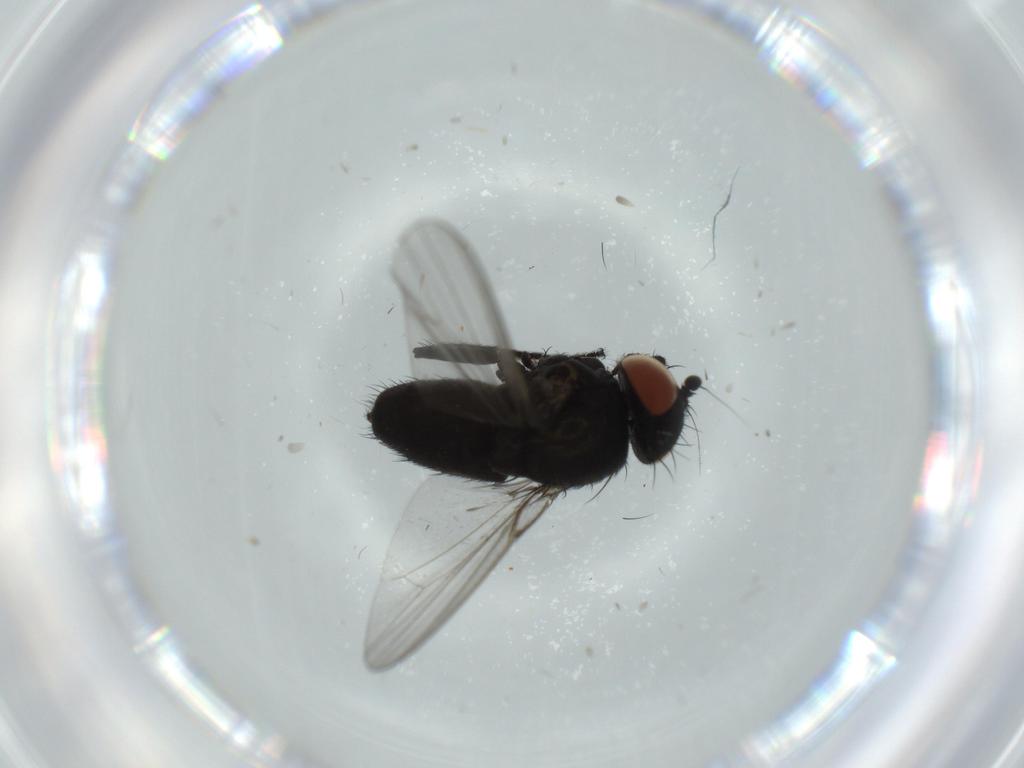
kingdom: Animalia
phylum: Arthropoda
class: Insecta
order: Diptera
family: Milichiidae
